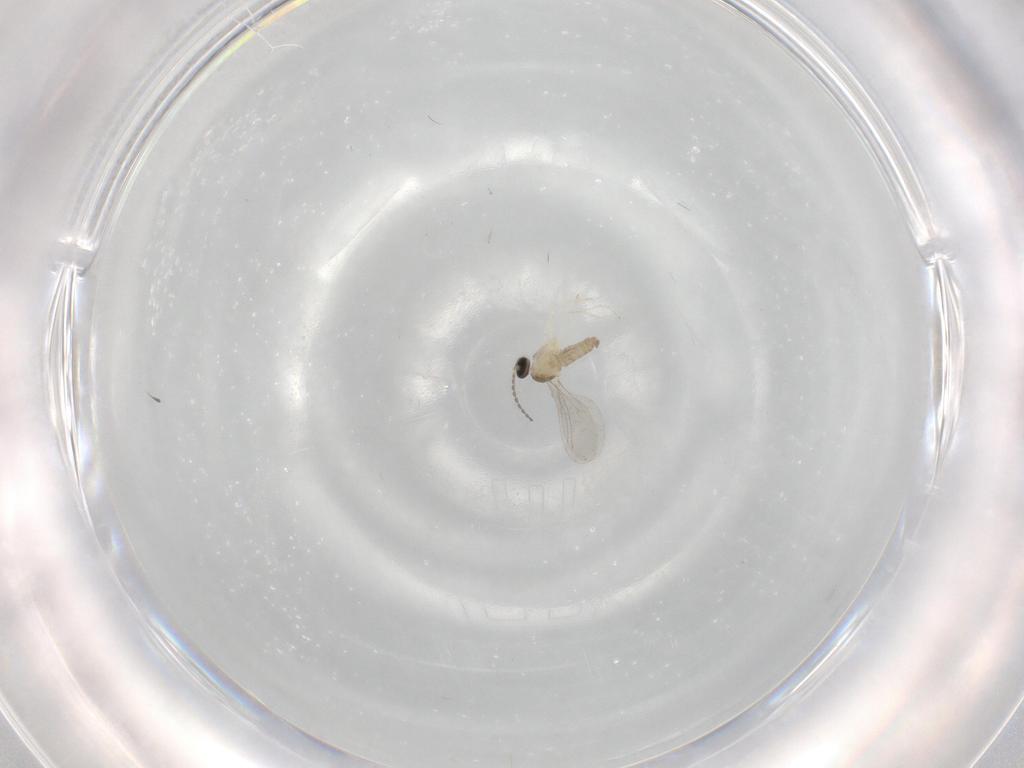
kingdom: Animalia
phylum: Arthropoda
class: Insecta
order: Diptera
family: Cecidomyiidae
